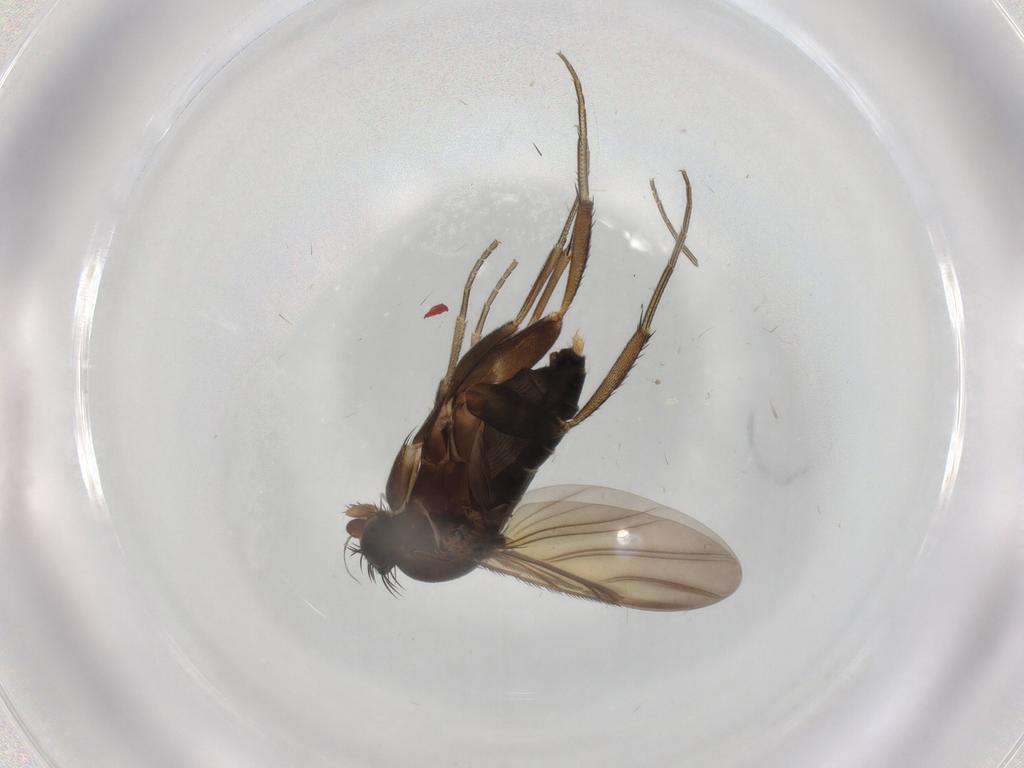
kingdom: Animalia
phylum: Arthropoda
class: Insecta
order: Diptera
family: Phoridae
